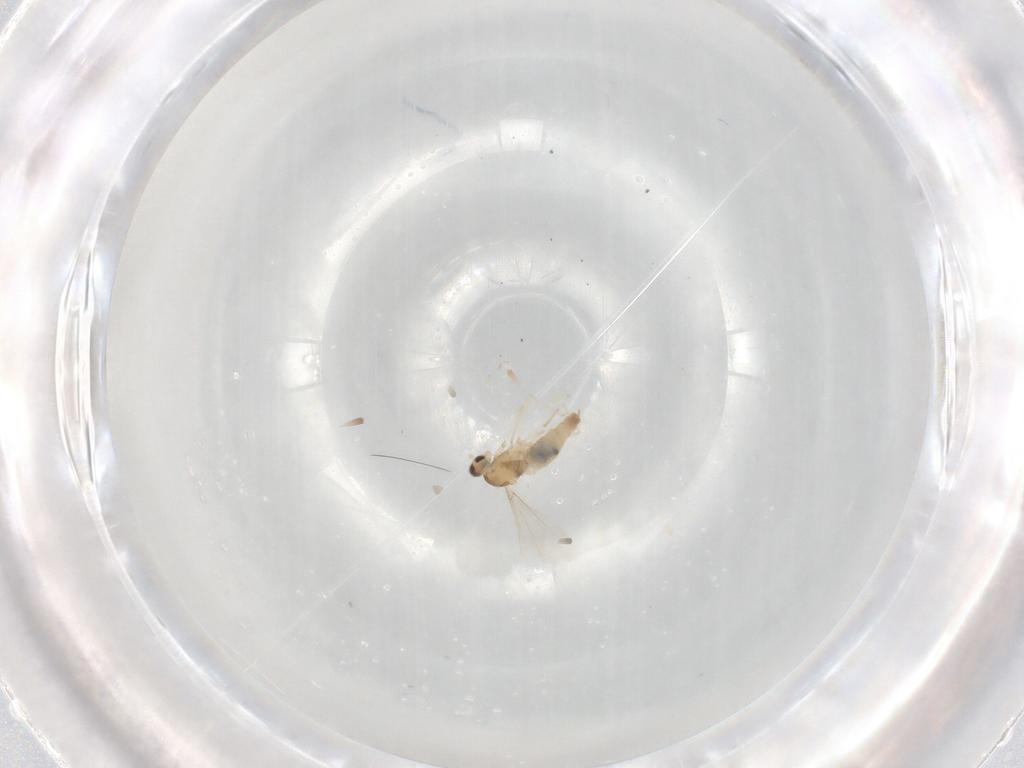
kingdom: Animalia
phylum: Arthropoda
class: Insecta
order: Diptera
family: Cecidomyiidae
